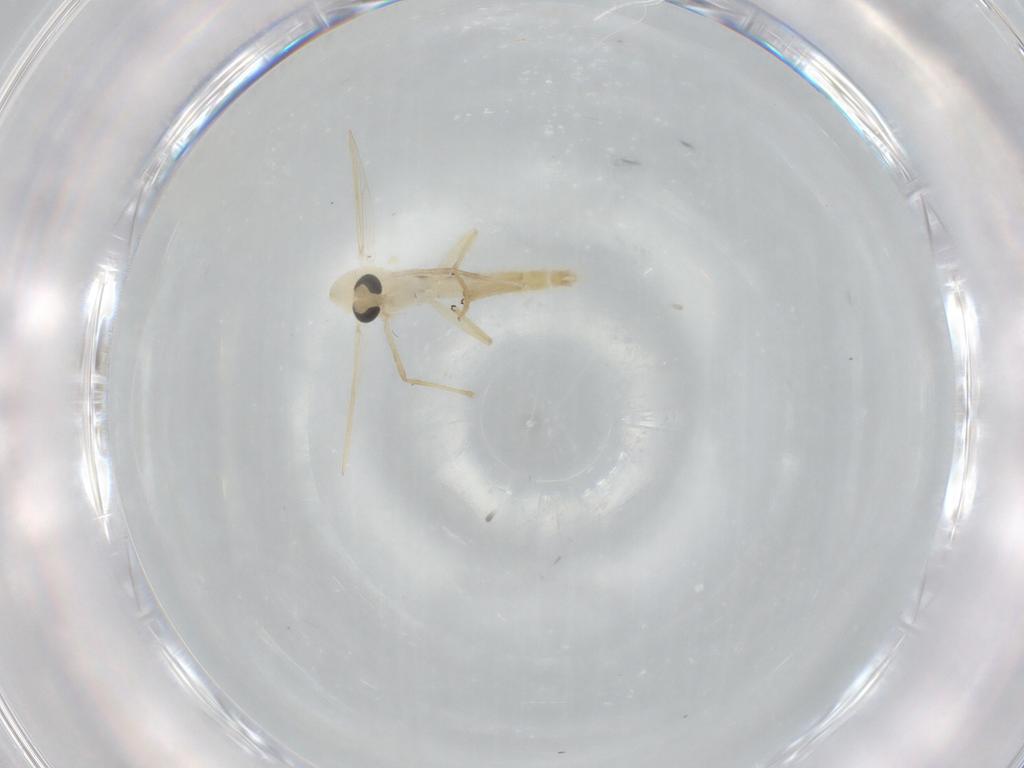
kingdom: Animalia
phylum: Arthropoda
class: Insecta
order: Diptera
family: Chironomidae
